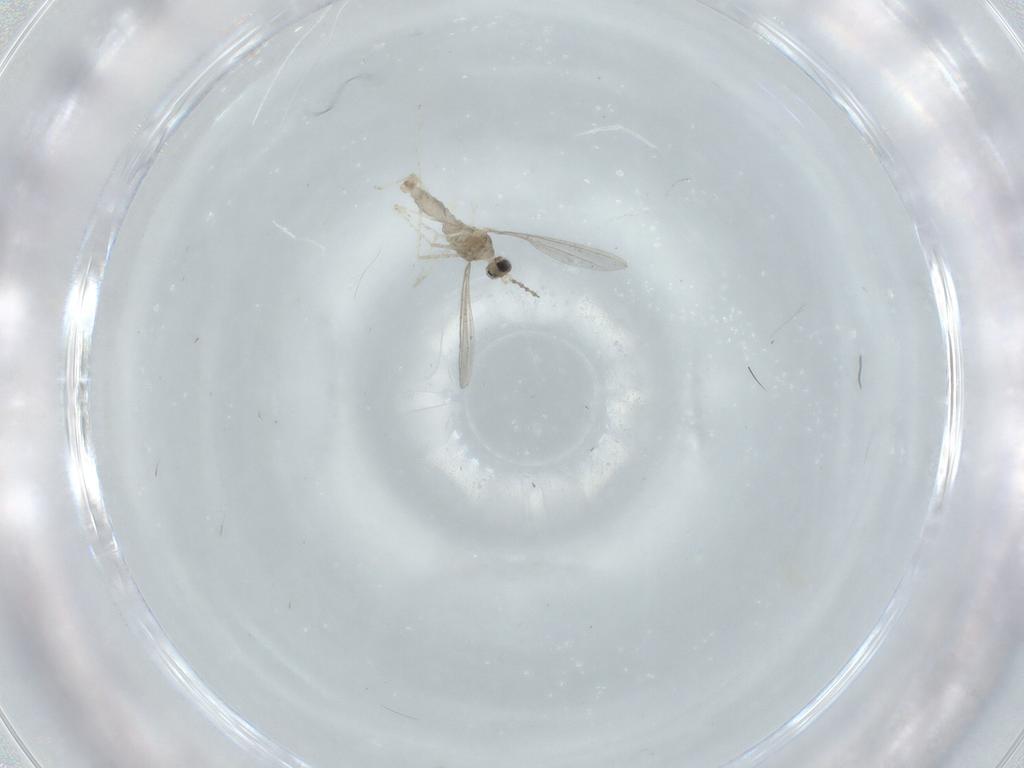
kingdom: Animalia
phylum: Arthropoda
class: Insecta
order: Diptera
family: Cecidomyiidae
